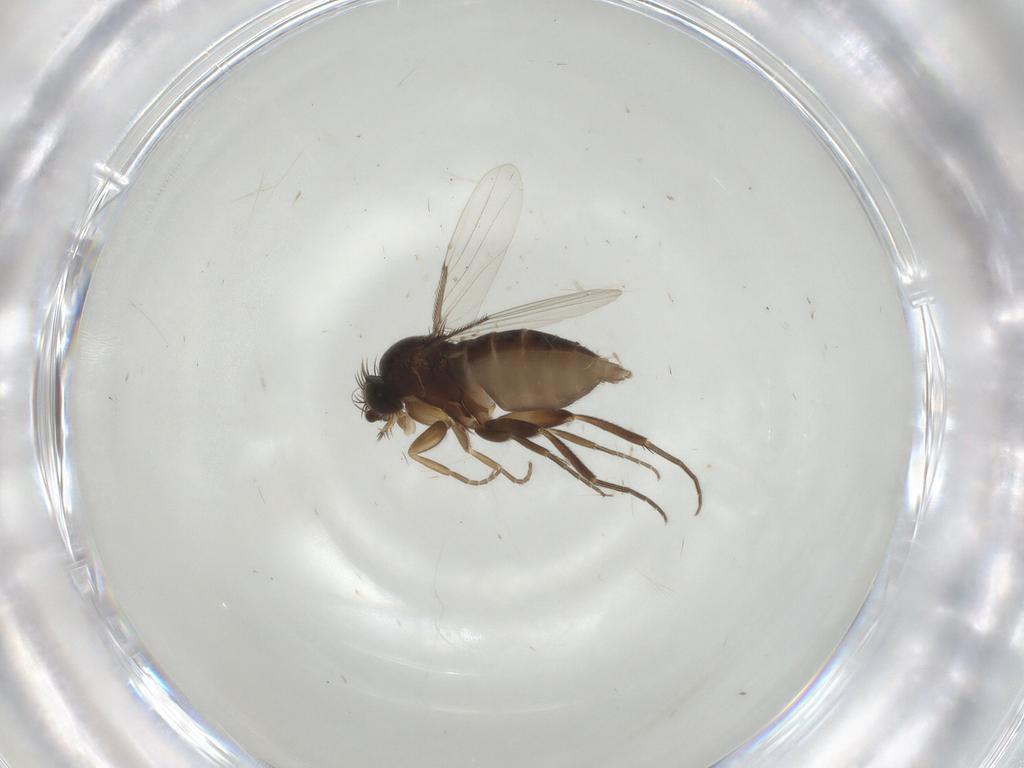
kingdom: Animalia
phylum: Arthropoda
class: Insecta
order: Diptera
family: Phoridae
